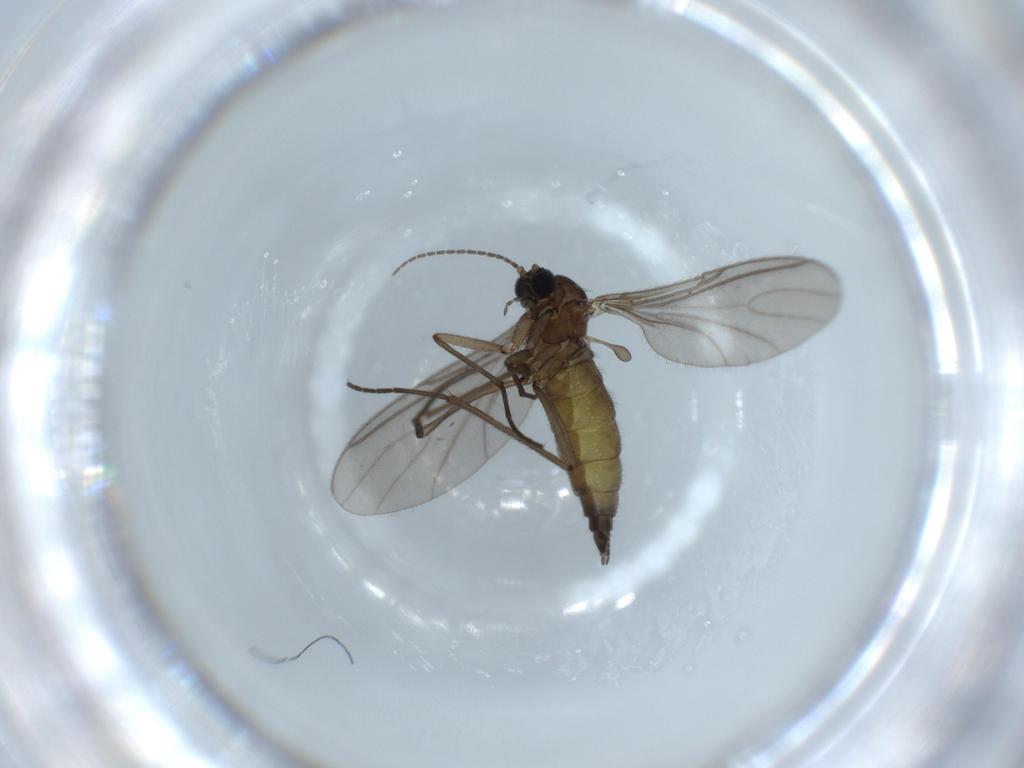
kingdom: Animalia
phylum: Arthropoda
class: Insecta
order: Diptera
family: Sciaridae
